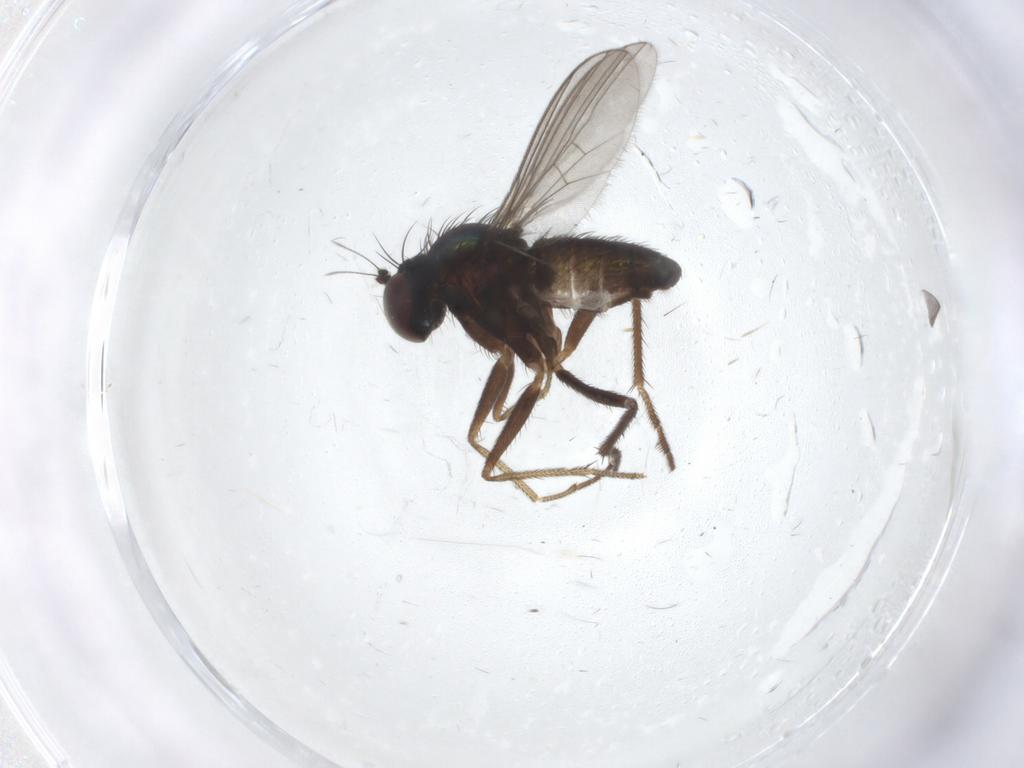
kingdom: Animalia
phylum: Arthropoda
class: Insecta
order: Diptera
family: Dolichopodidae
